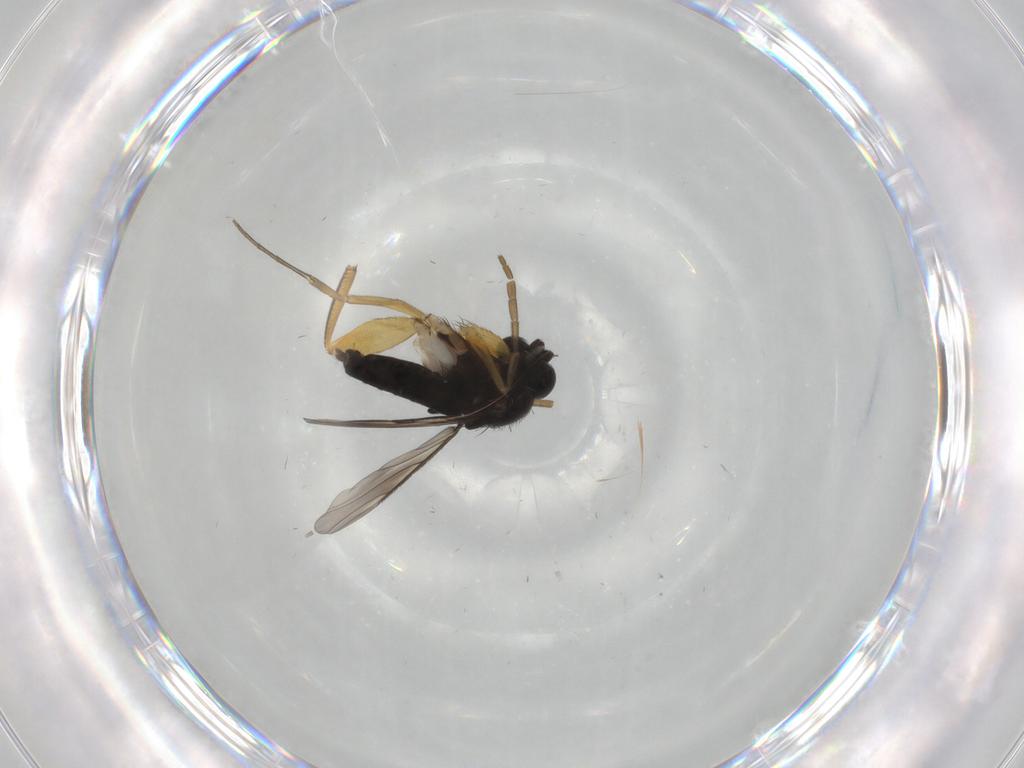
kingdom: Animalia
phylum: Arthropoda
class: Insecta
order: Diptera
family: Chironomidae
